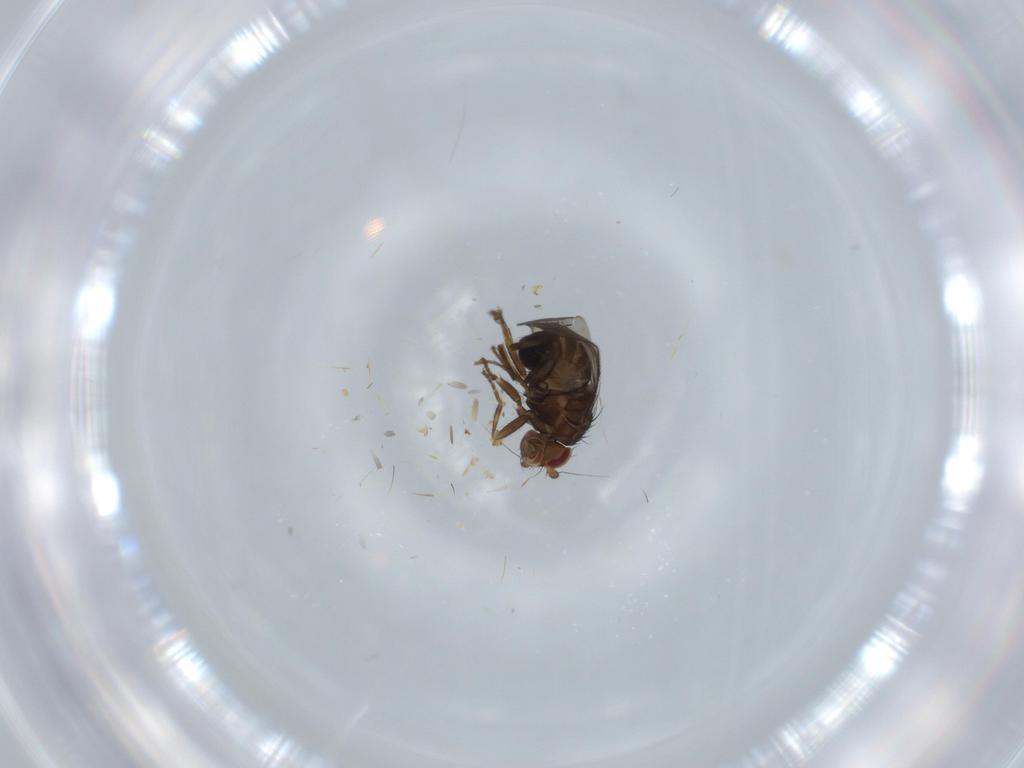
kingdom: Animalia
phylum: Arthropoda
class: Insecta
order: Diptera
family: Sphaeroceridae
